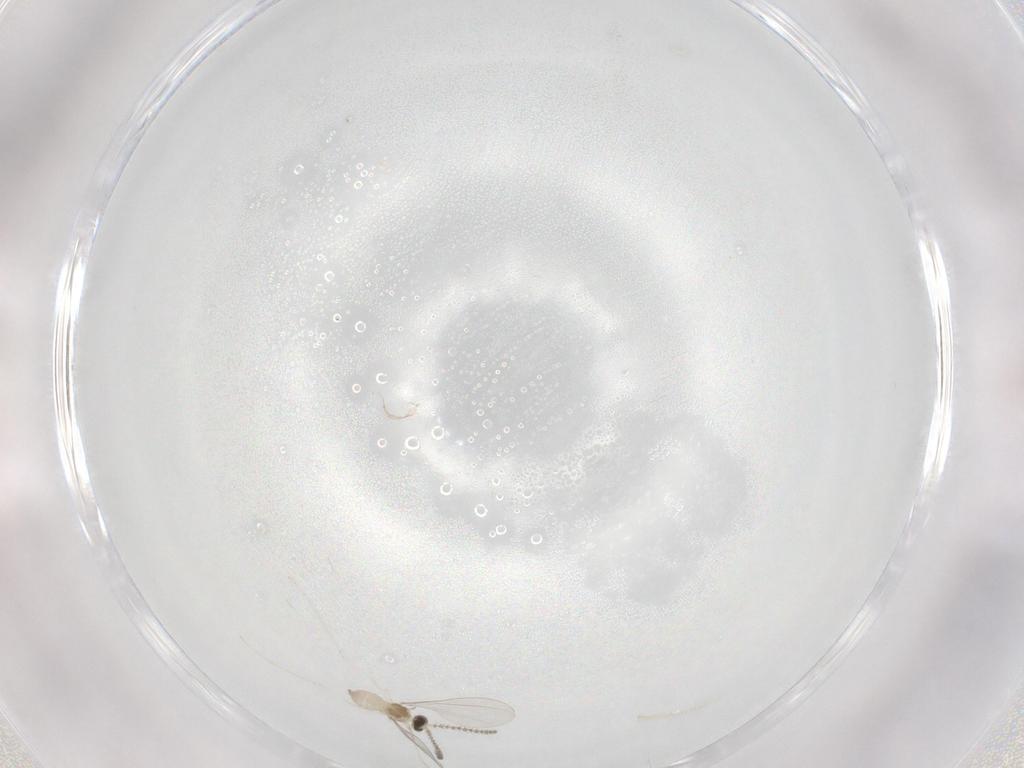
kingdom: Animalia
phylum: Arthropoda
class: Insecta
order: Diptera
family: Cecidomyiidae
